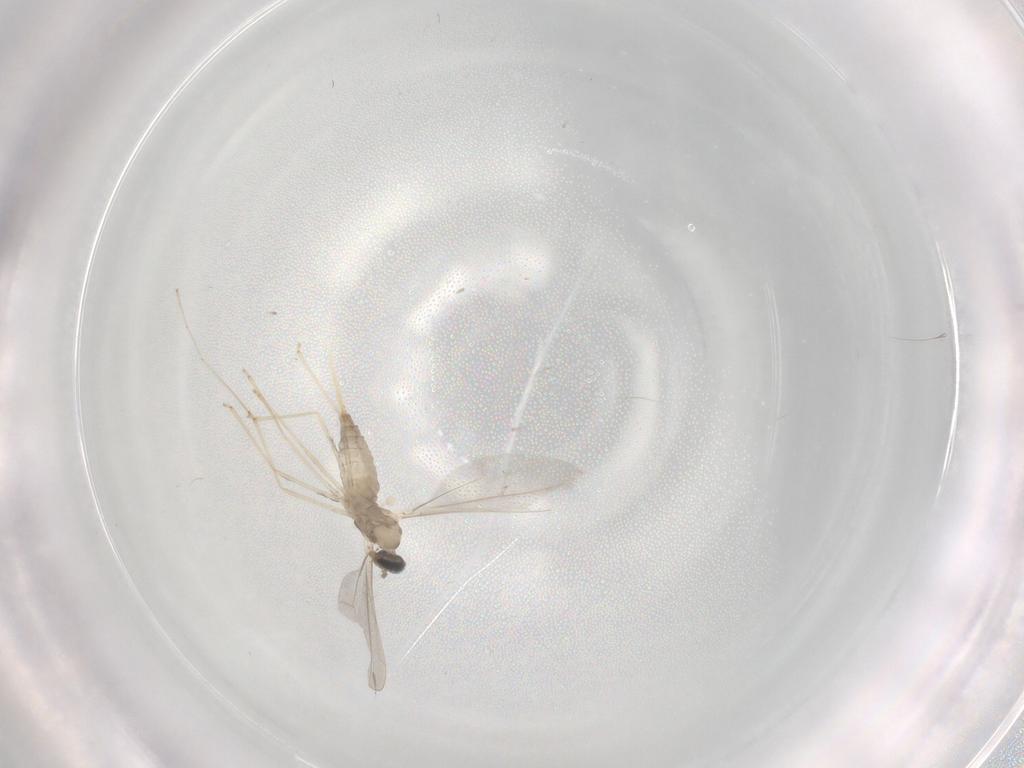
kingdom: Animalia
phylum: Arthropoda
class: Insecta
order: Diptera
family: Cecidomyiidae
